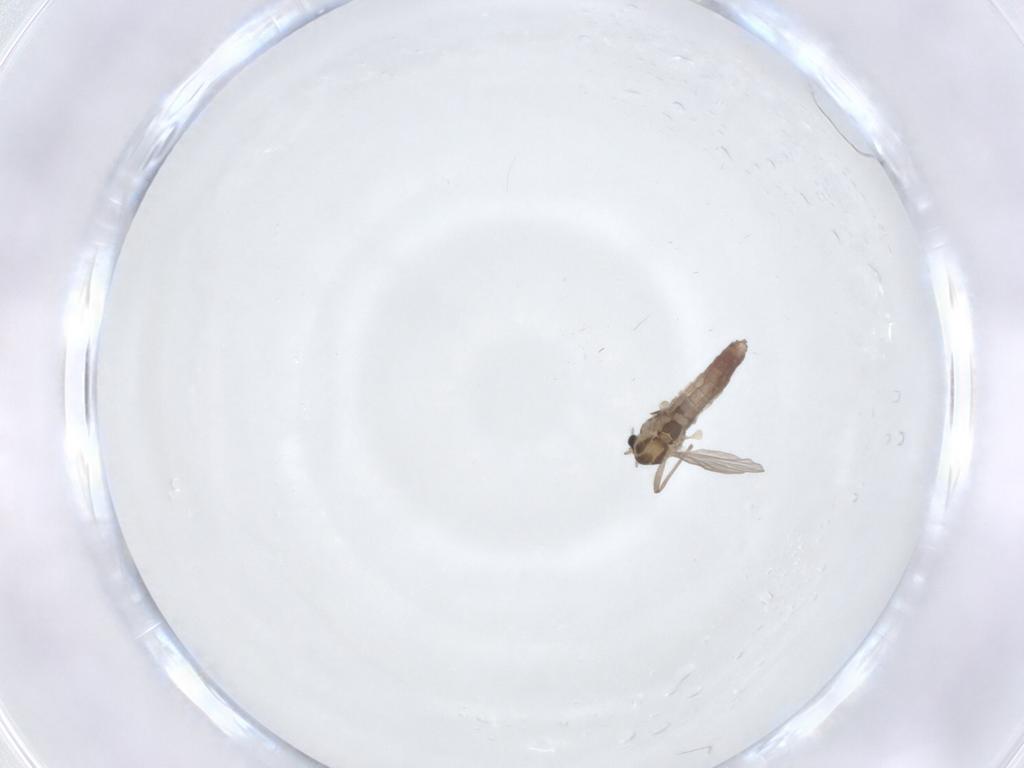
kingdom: Animalia
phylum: Arthropoda
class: Insecta
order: Diptera
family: Chironomidae
